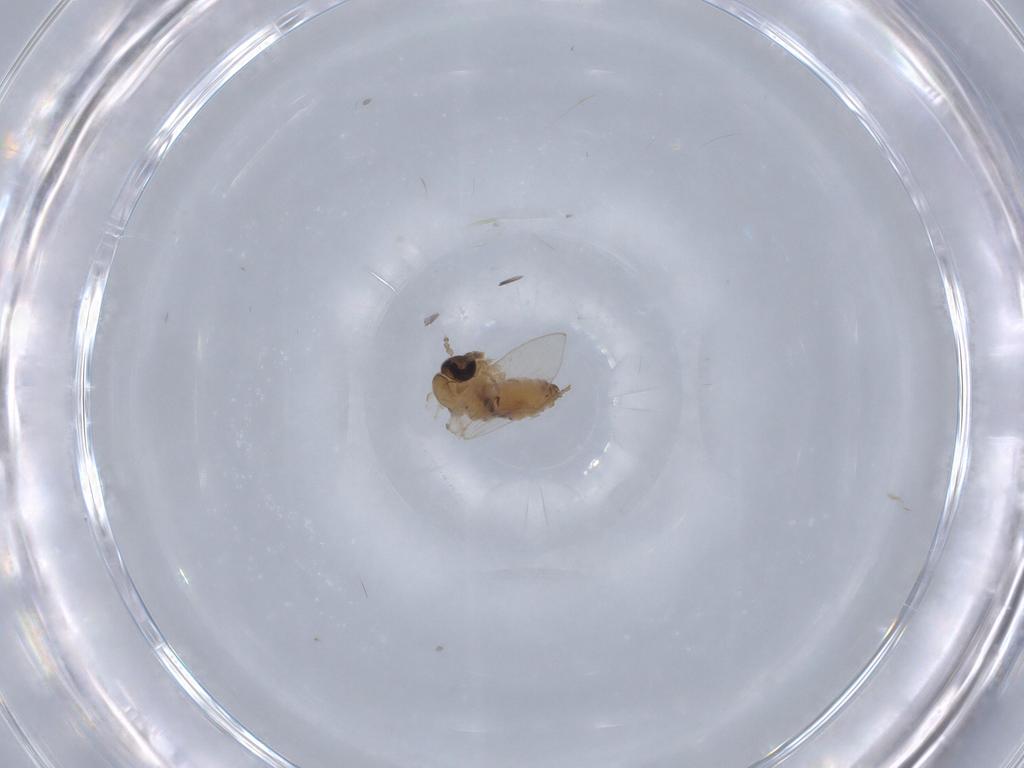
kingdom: Animalia
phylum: Arthropoda
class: Insecta
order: Diptera
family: Psychodidae
